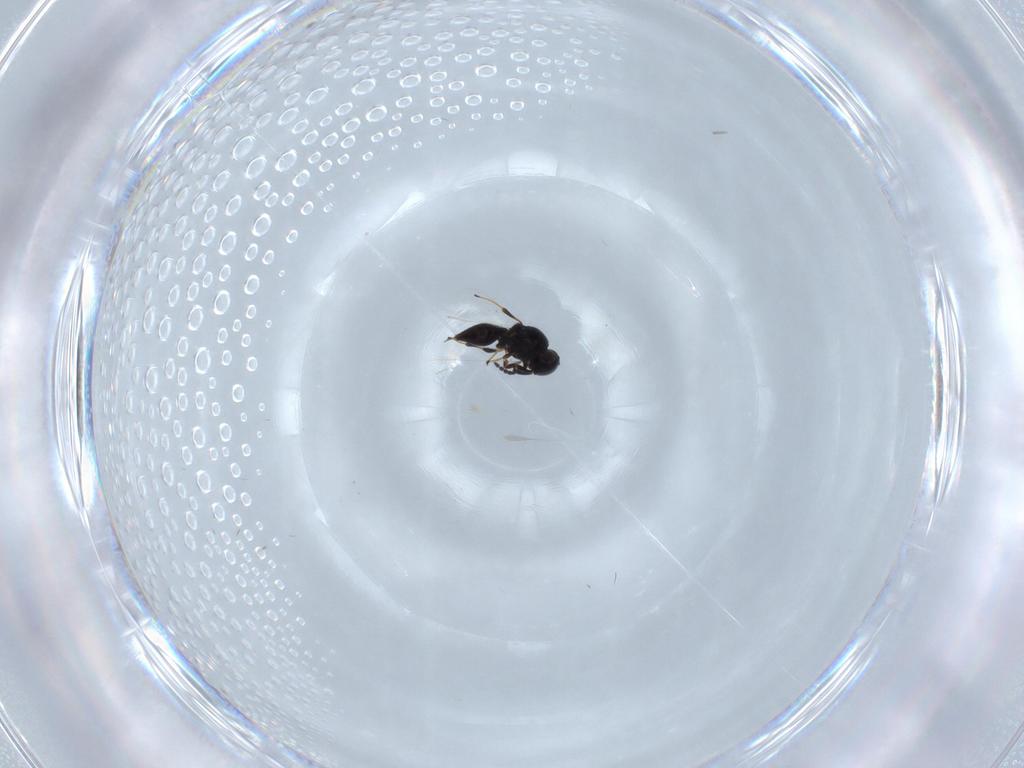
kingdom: Animalia
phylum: Arthropoda
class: Insecta
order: Hymenoptera
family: Platygastridae
